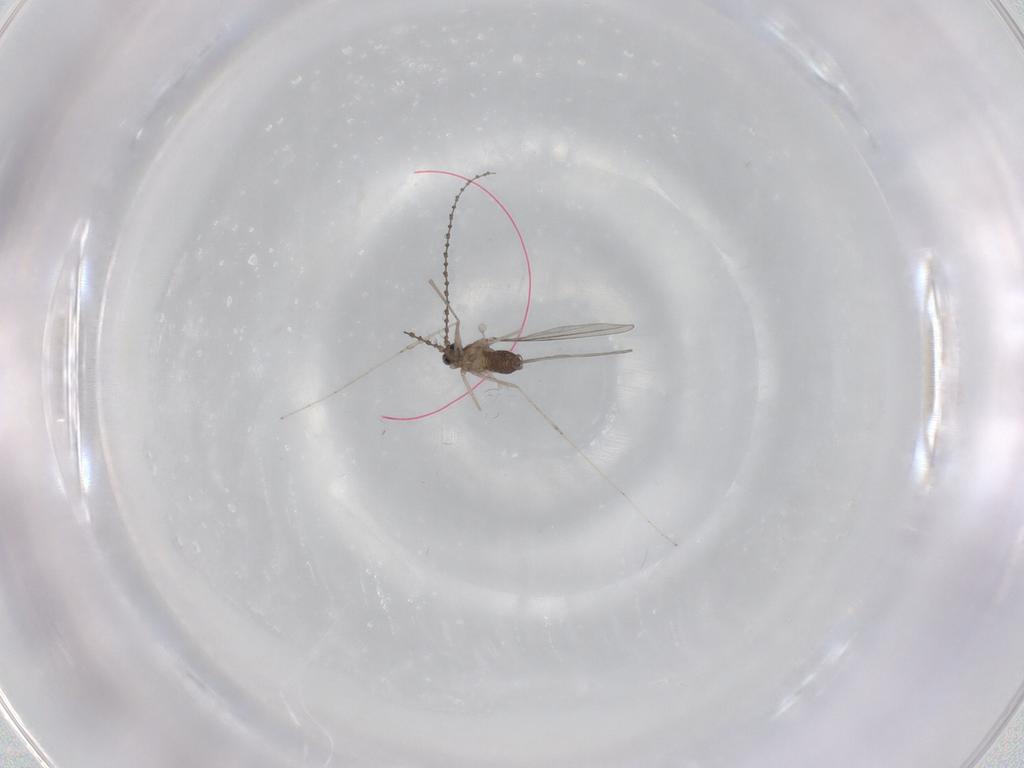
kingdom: Animalia
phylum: Arthropoda
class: Insecta
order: Diptera
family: Cecidomyiidae
